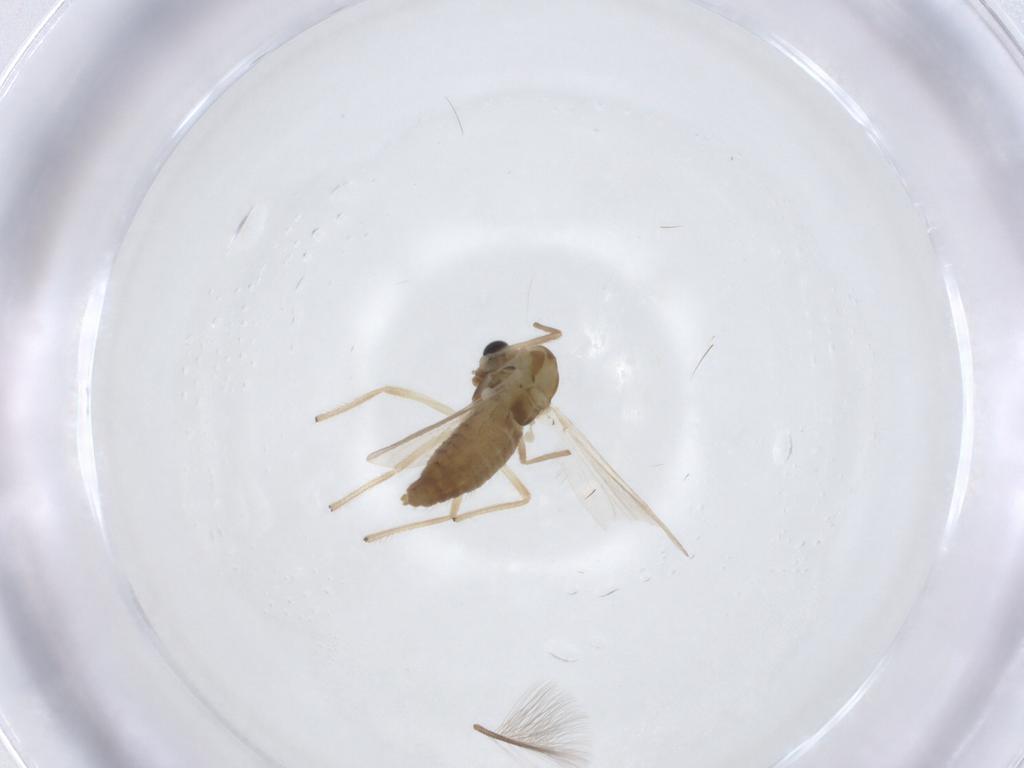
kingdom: Animalia
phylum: Arthropoda
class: Insecta
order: Diptera
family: Chironomidae
